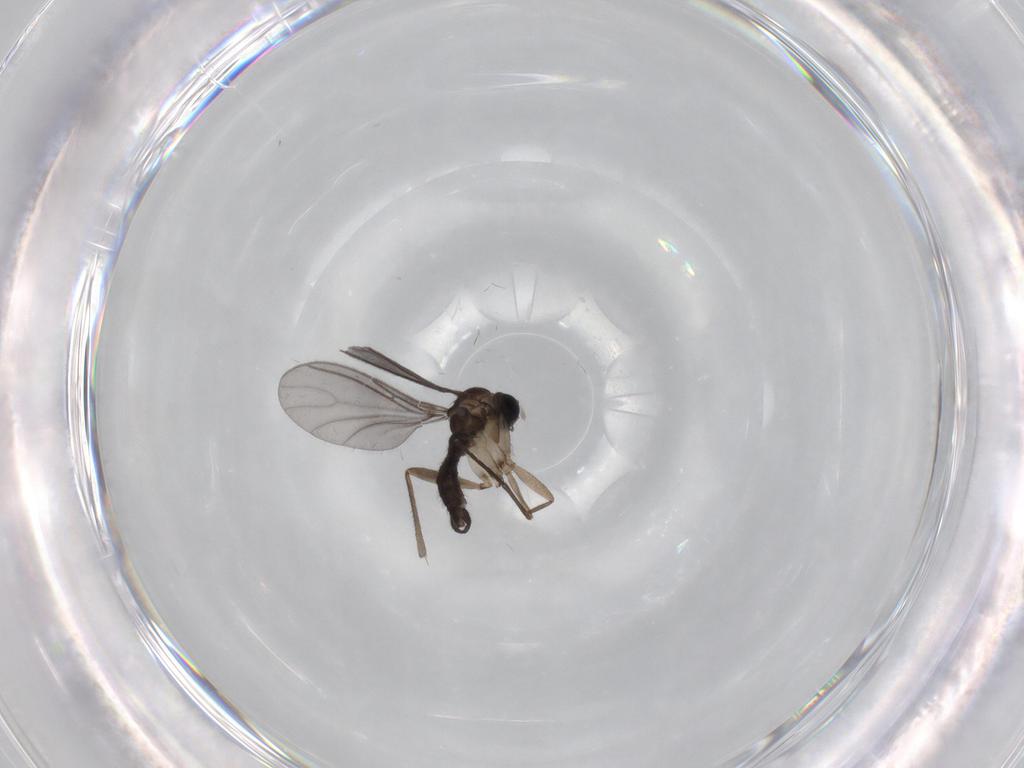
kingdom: Animalia
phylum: Arthropoda
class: Insecta
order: Diptera
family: Sciaridae
